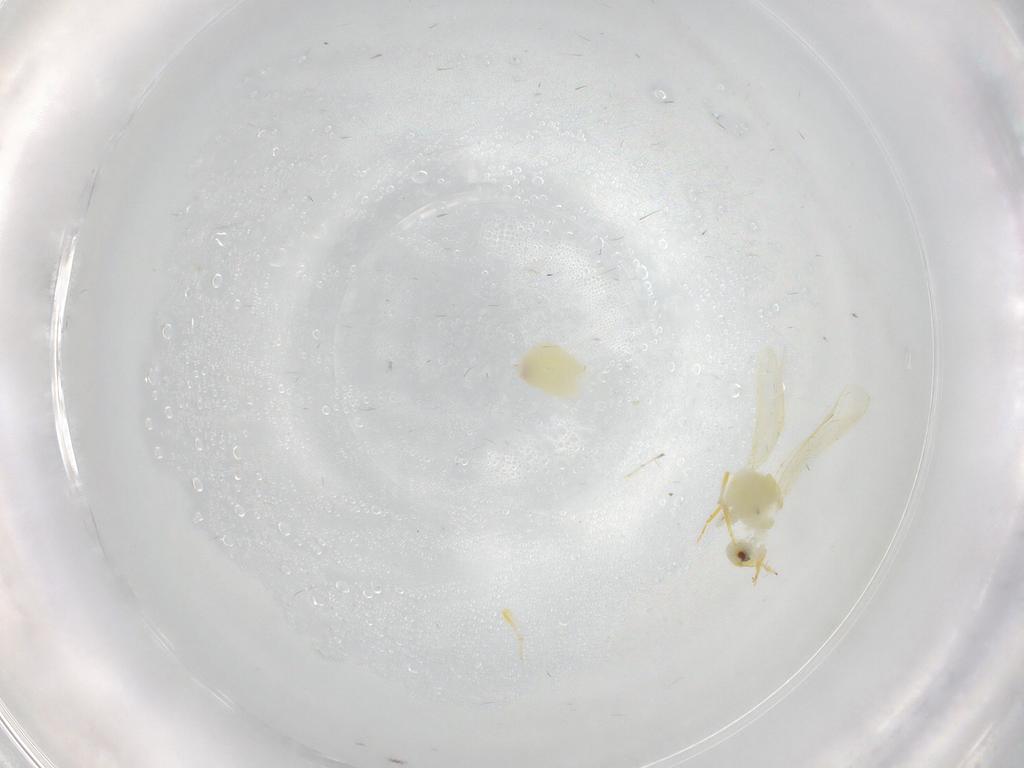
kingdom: Animalia
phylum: Arthropoda
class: Insecta
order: Hemiptera
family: Aleyrodidae
